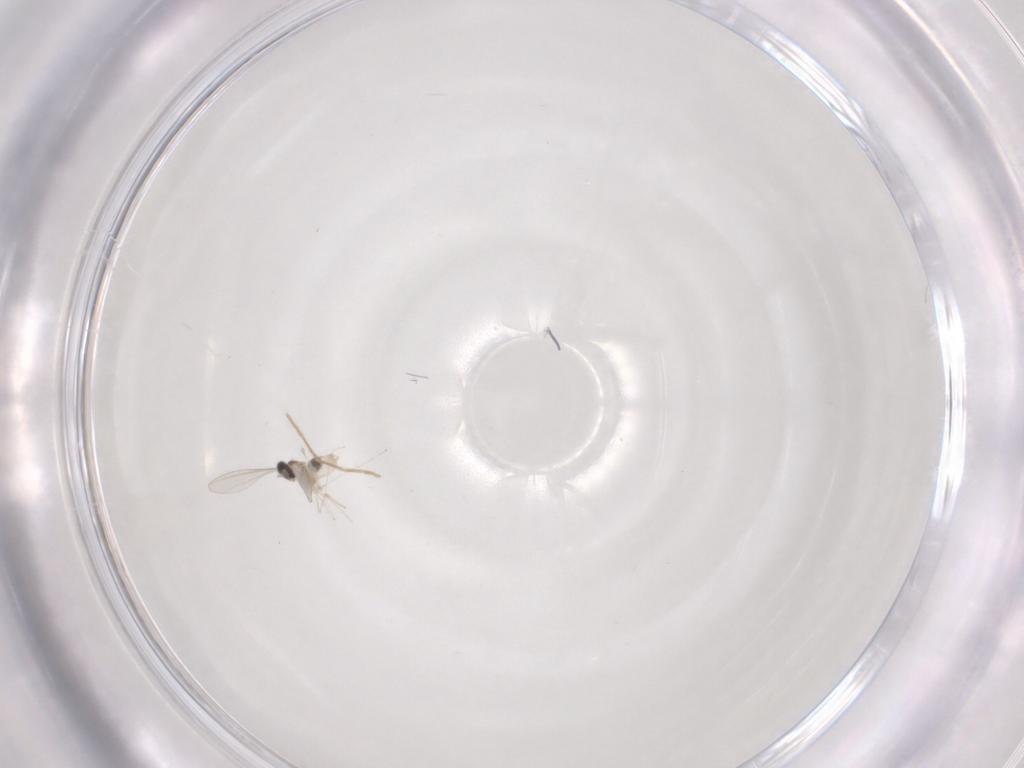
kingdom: Animalia
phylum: Arthropoda
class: Insecta
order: Diptera
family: Cecidomyiidae
